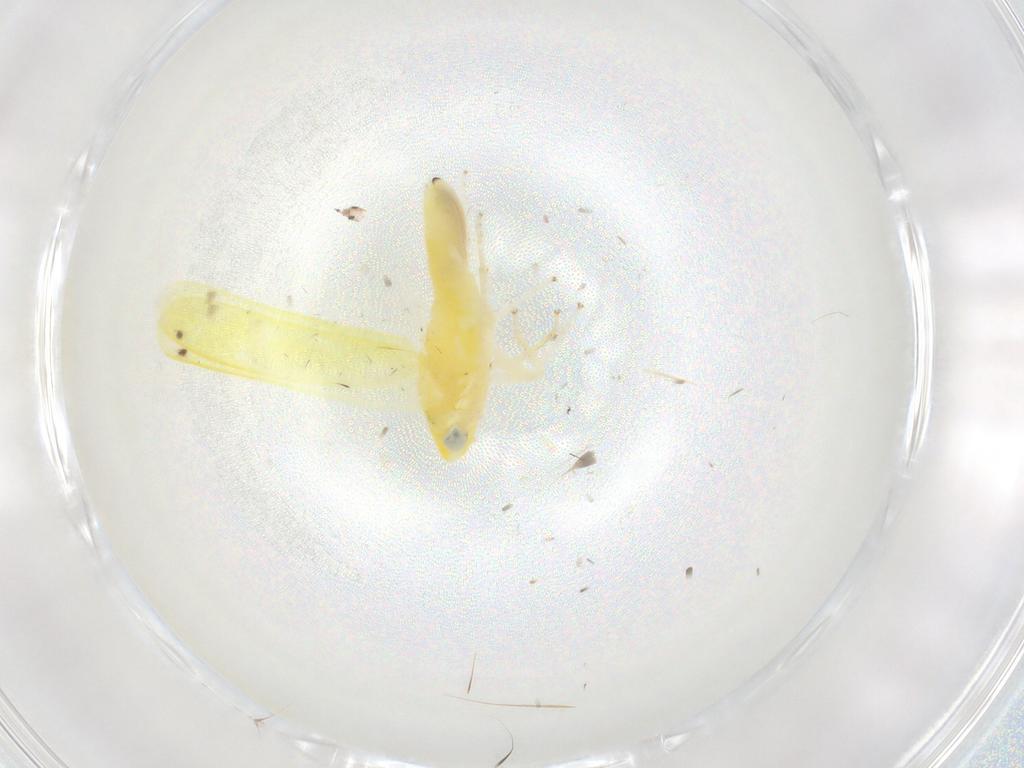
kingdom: Animalia
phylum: Arthropoda
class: Insecta
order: Hemiptera
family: Cicadellidae
